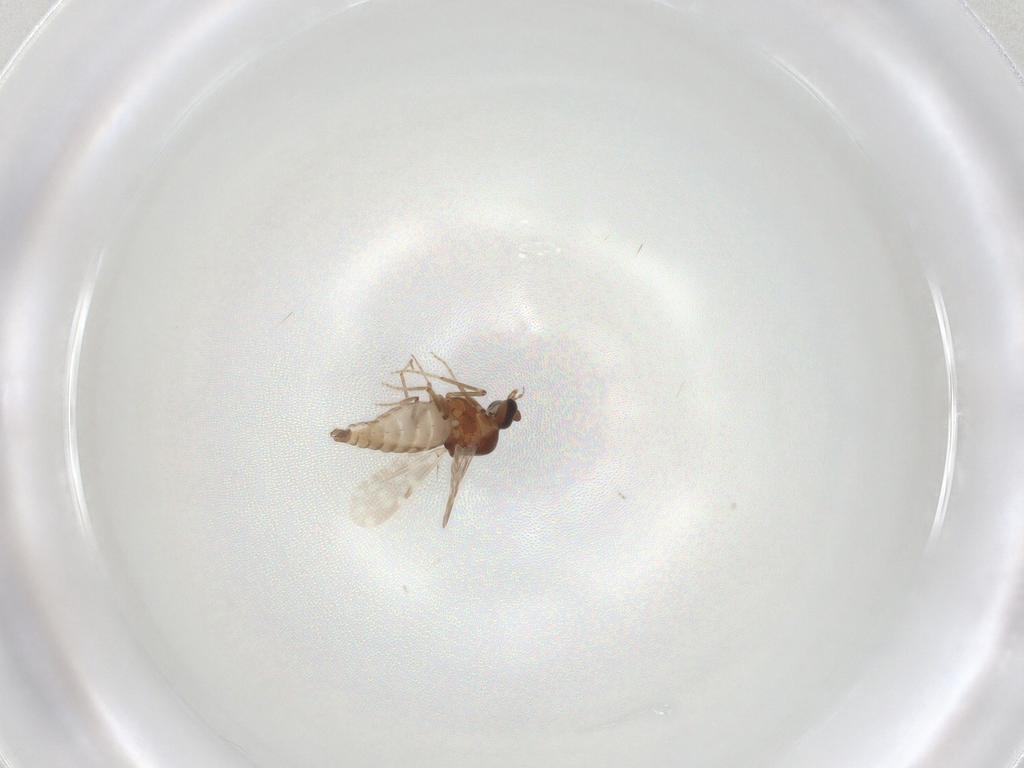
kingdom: Animalia
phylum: Arthropoda
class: Insecta
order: Diptera
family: Ceratopogonidae
